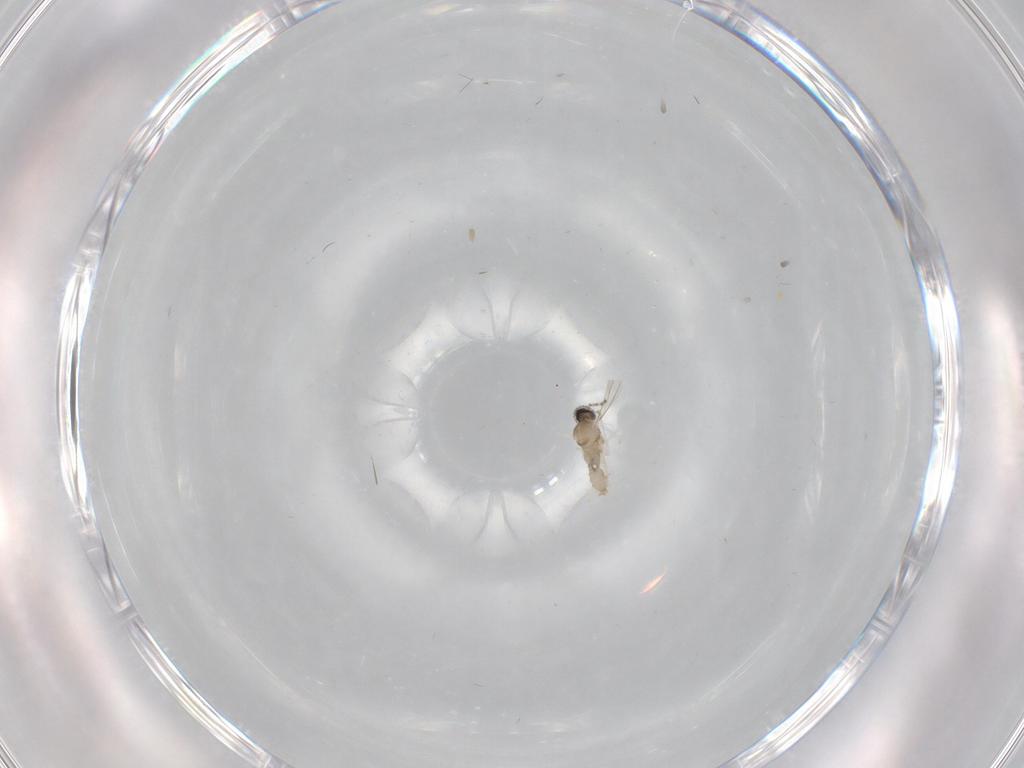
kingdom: Animalia
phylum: Arthropoda
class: Insecta
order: Diptera
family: Cecidomyiidae
